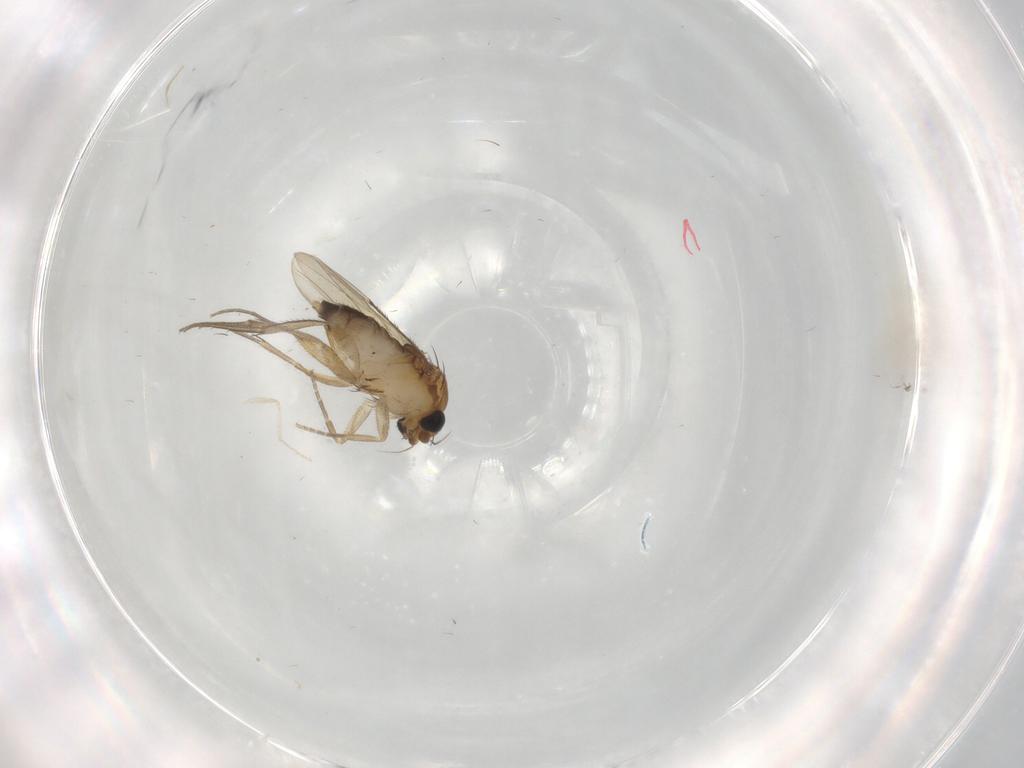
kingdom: Animalia
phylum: Arthropoda
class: Insecta
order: Diptera
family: Cecidomyiidae
